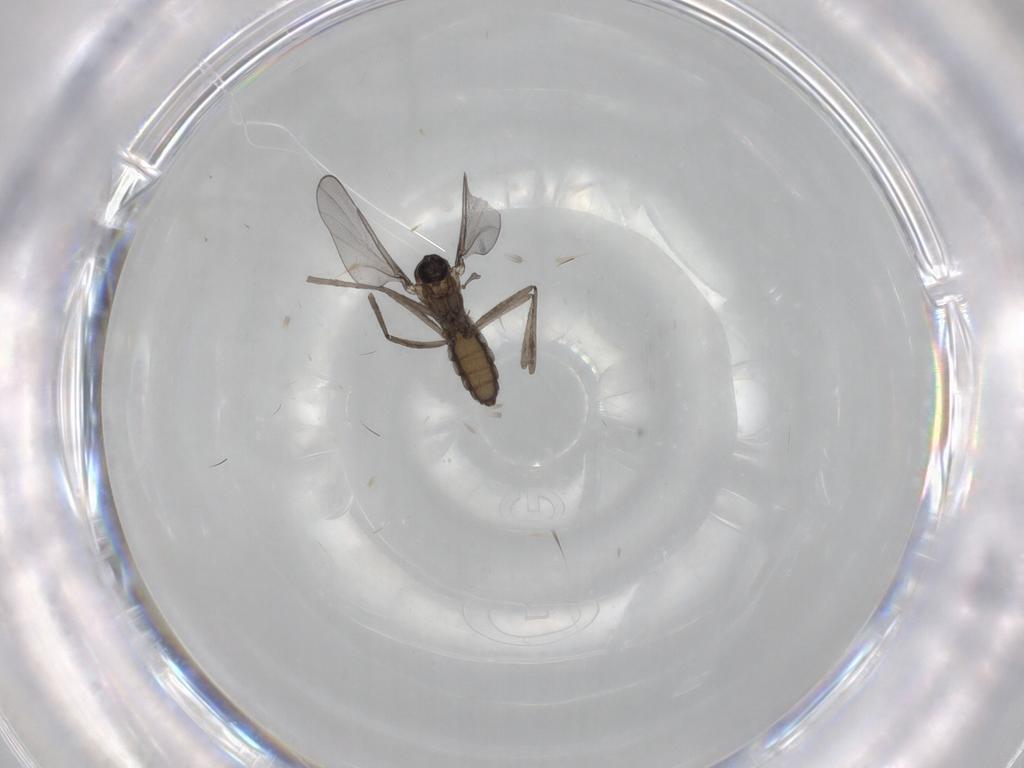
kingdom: Animalia
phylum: Arthropoda
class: Insecta
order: Diptera
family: Cecidomyiidae
